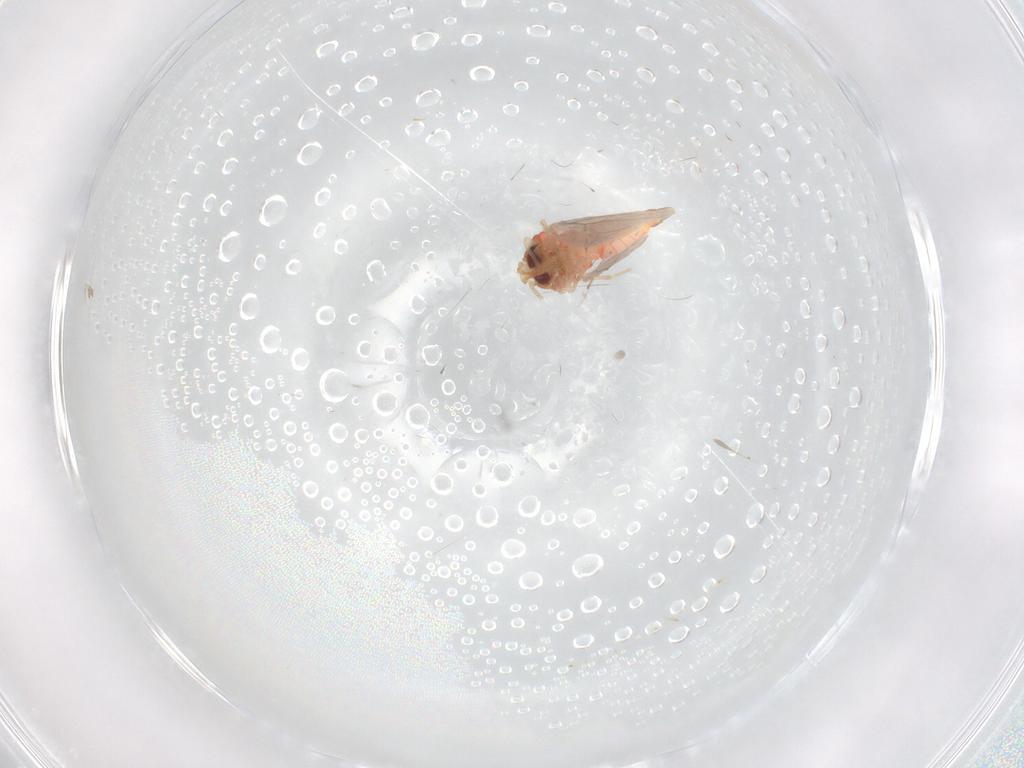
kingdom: Animalia
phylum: Arthropoda
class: Insecta
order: Hemiptera
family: Aleyrodidae
